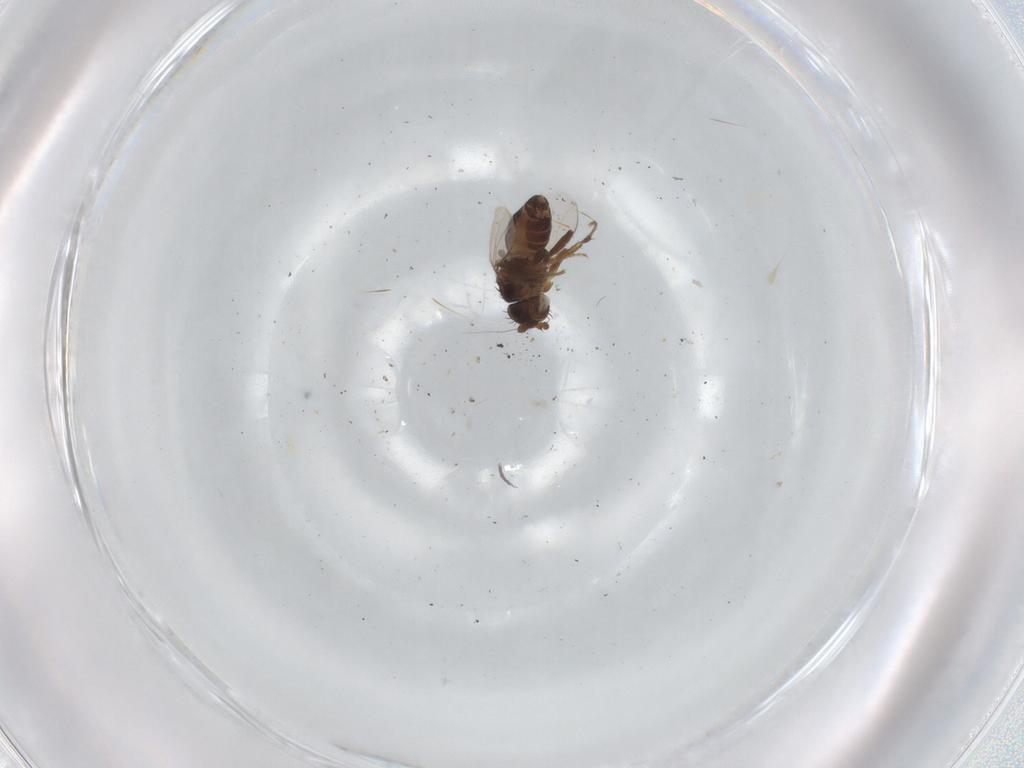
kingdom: Animalia
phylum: Arthropoda
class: Insecta
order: Diptera
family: Sphaeroceridae
